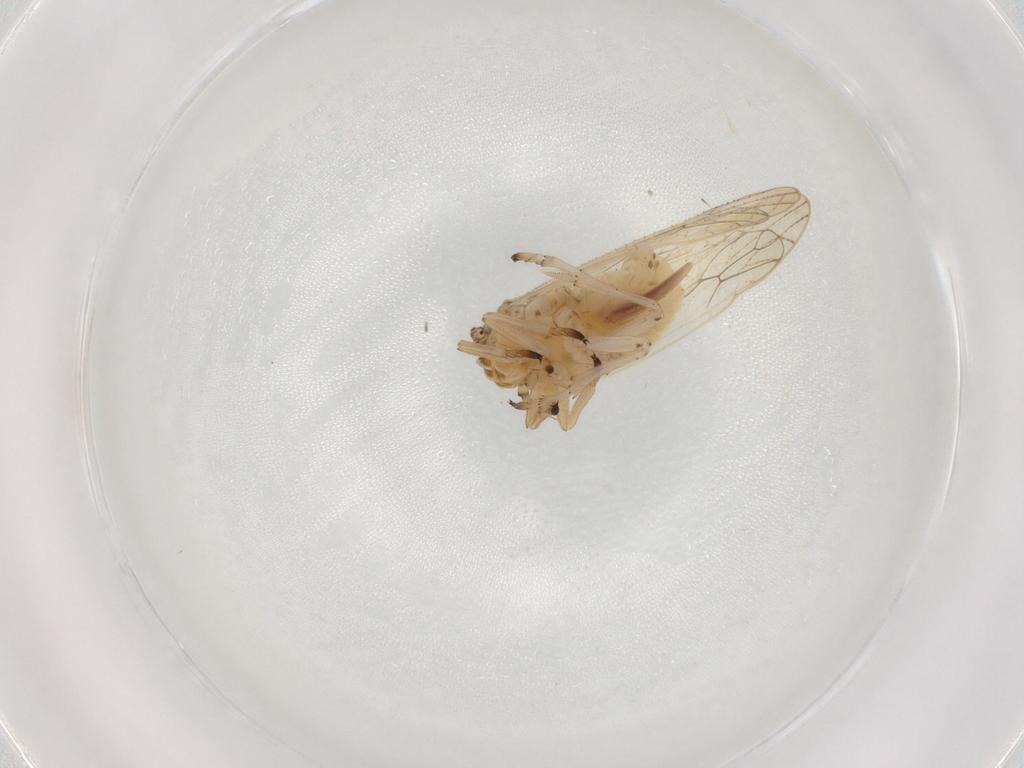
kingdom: Animalia
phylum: Arthropoda
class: Insecta
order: Hemiptera
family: Delphacidae
